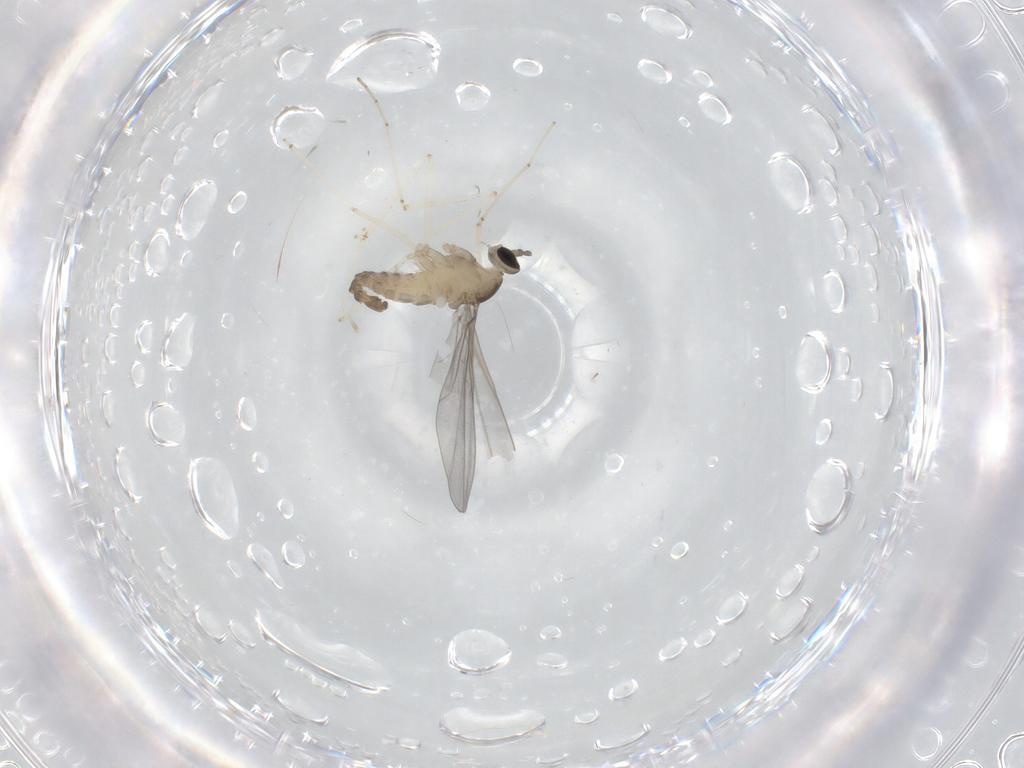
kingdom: Animalia
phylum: Arthropoda
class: Insecta
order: Diptera
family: Cecidomyiidae
